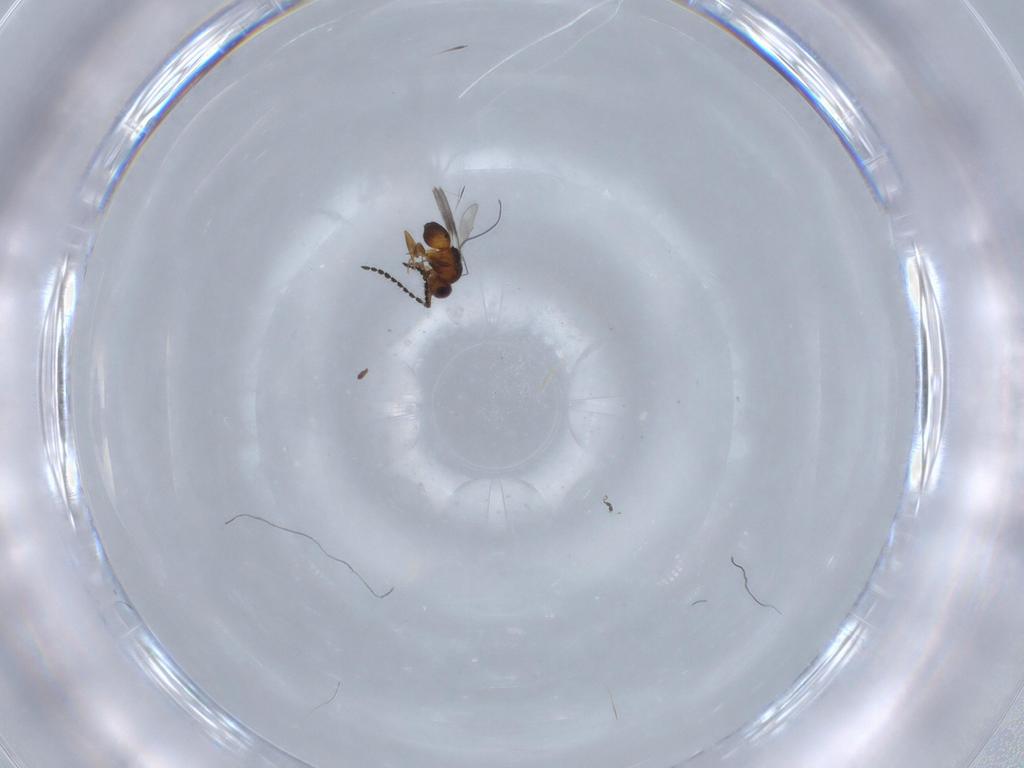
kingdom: Animalia
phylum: Arthropoda
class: Insecta
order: Hymenoptera
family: Ceraphronidae
